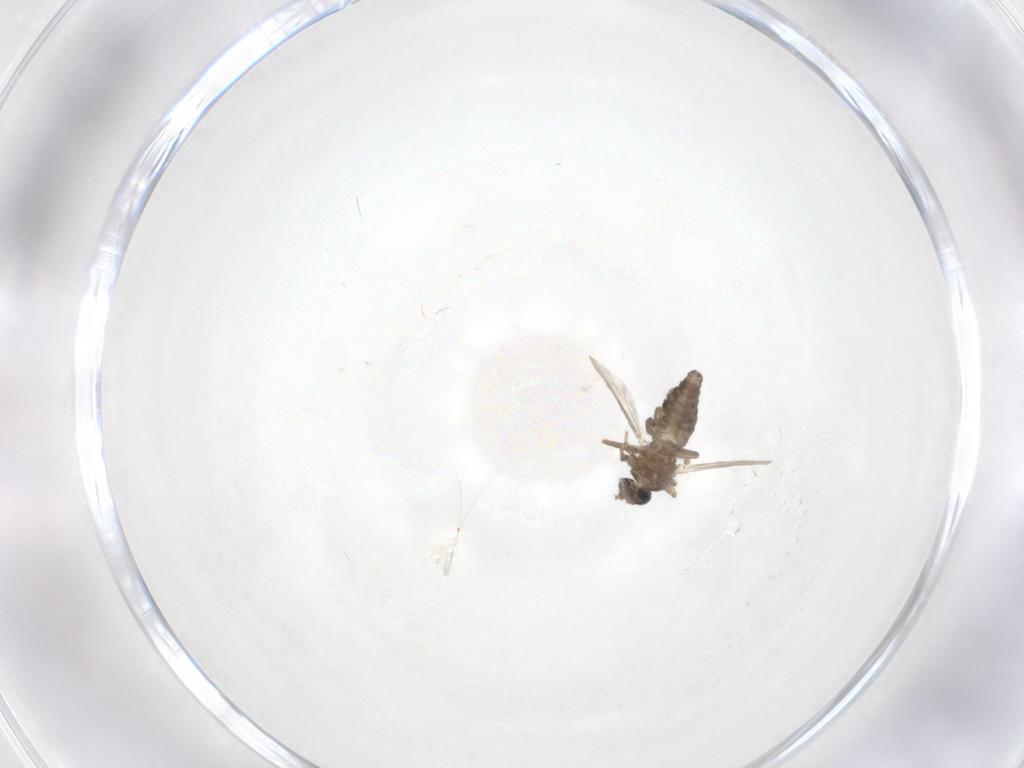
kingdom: Animalia
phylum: Arthropoda
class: Insecta
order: Diptera
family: Ceratopogonidae
